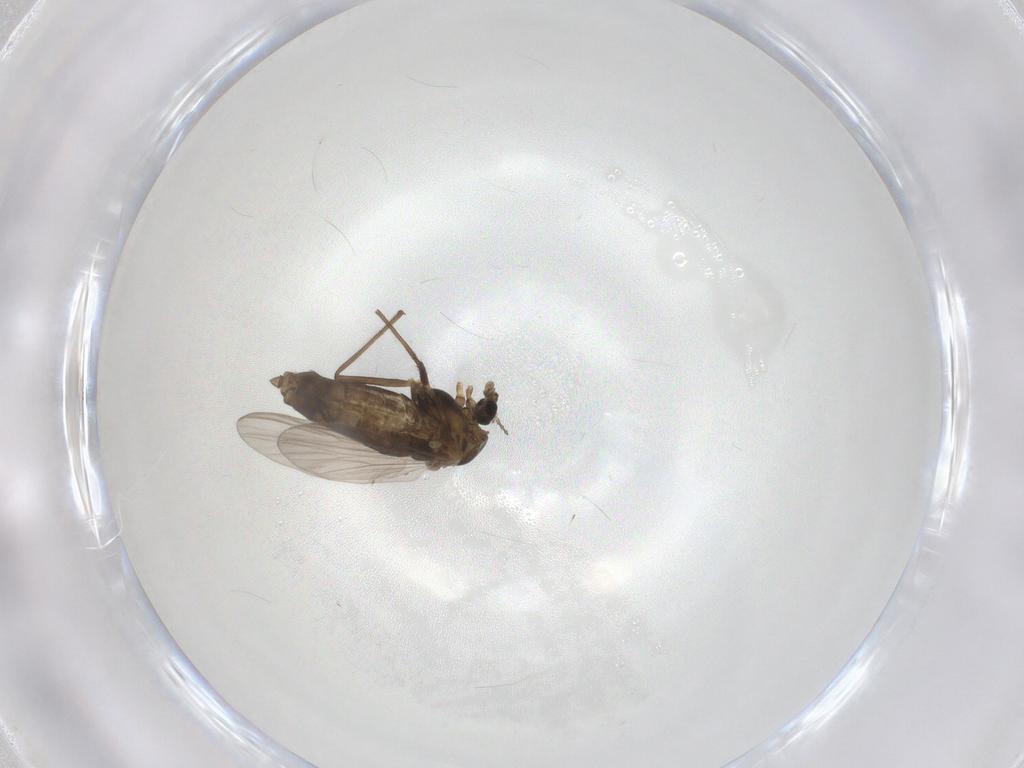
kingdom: Animalia
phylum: Arthropoda
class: Insecta
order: Diptera
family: Chironomidae
